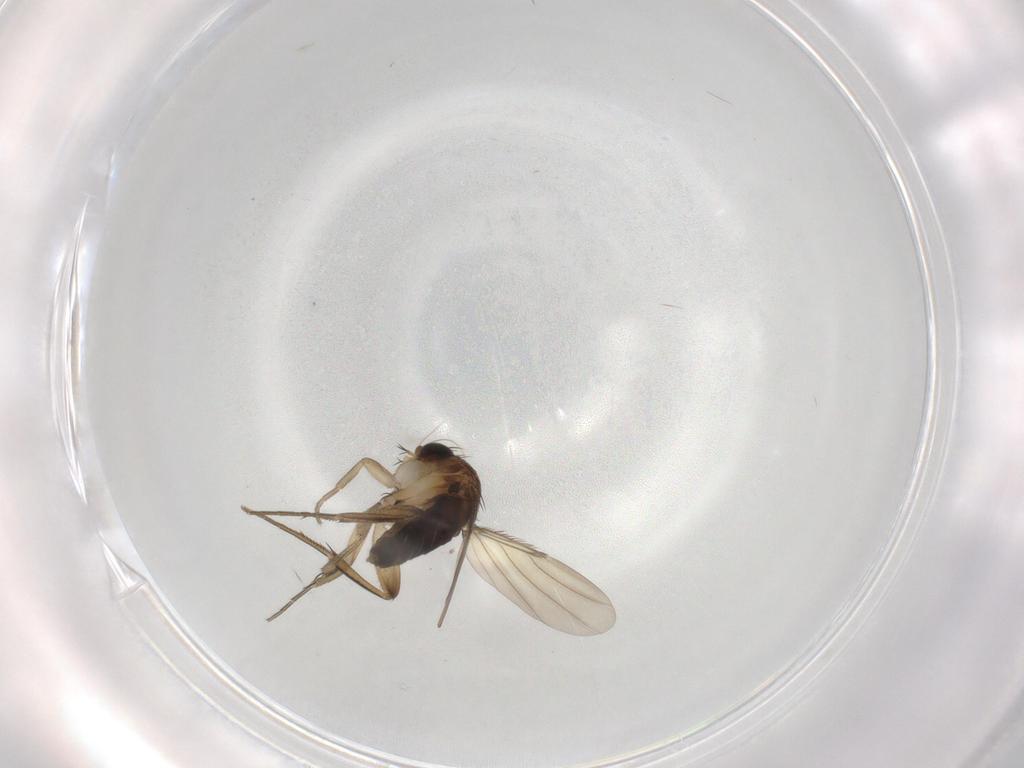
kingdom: Animalia
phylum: Arthropoda
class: Insecta
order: Diptera
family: Phoridae
